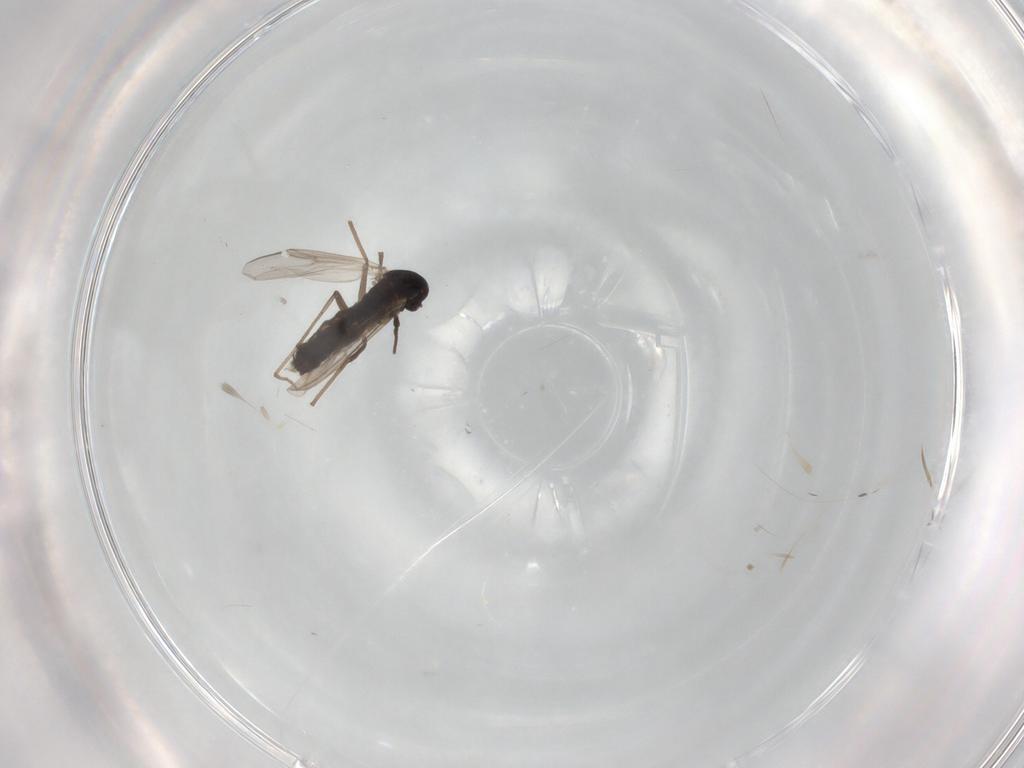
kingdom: Animalia
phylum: Arthropoda
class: Insecta
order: Diptera
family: Chironomidae
